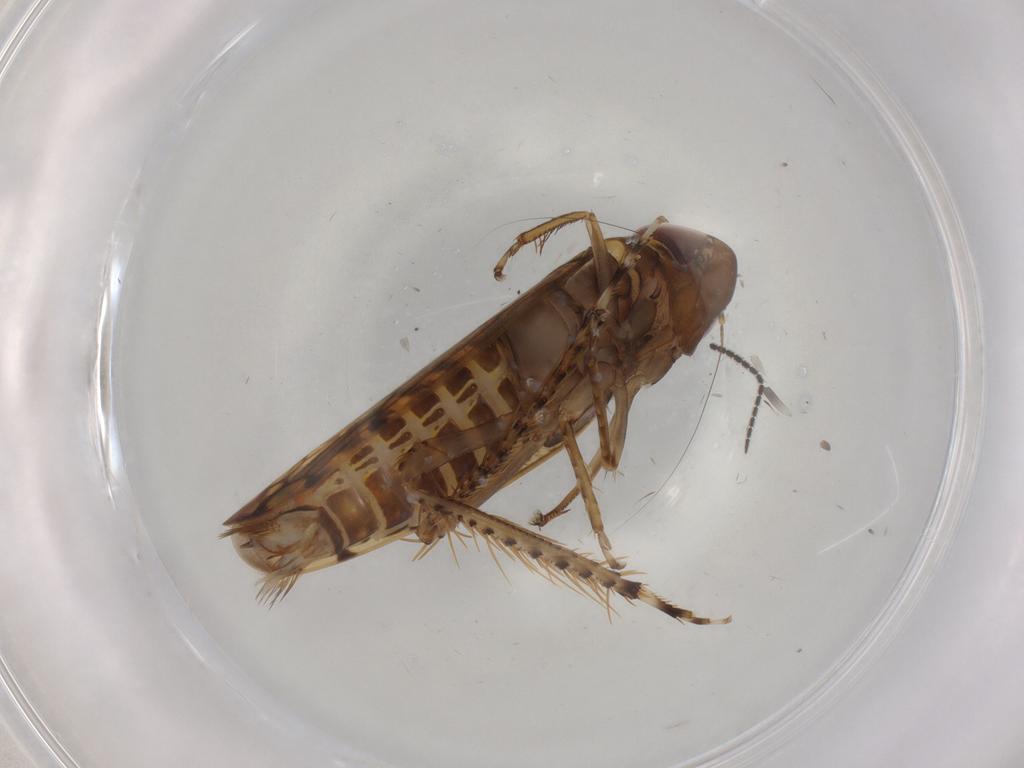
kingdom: Animalia
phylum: Arthropoda
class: Insecta
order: Hemiptera
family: Cicadellidae
